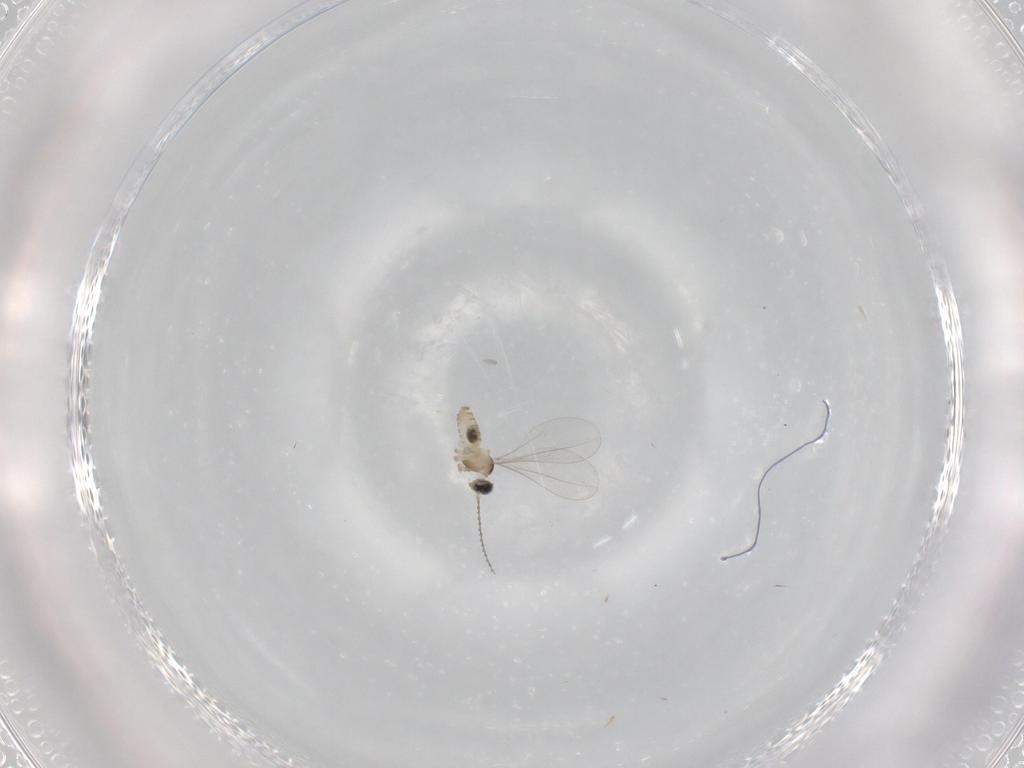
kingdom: Animalia
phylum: Arthropoda
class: Insecta
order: Diptera
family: Cecidomyiidae
